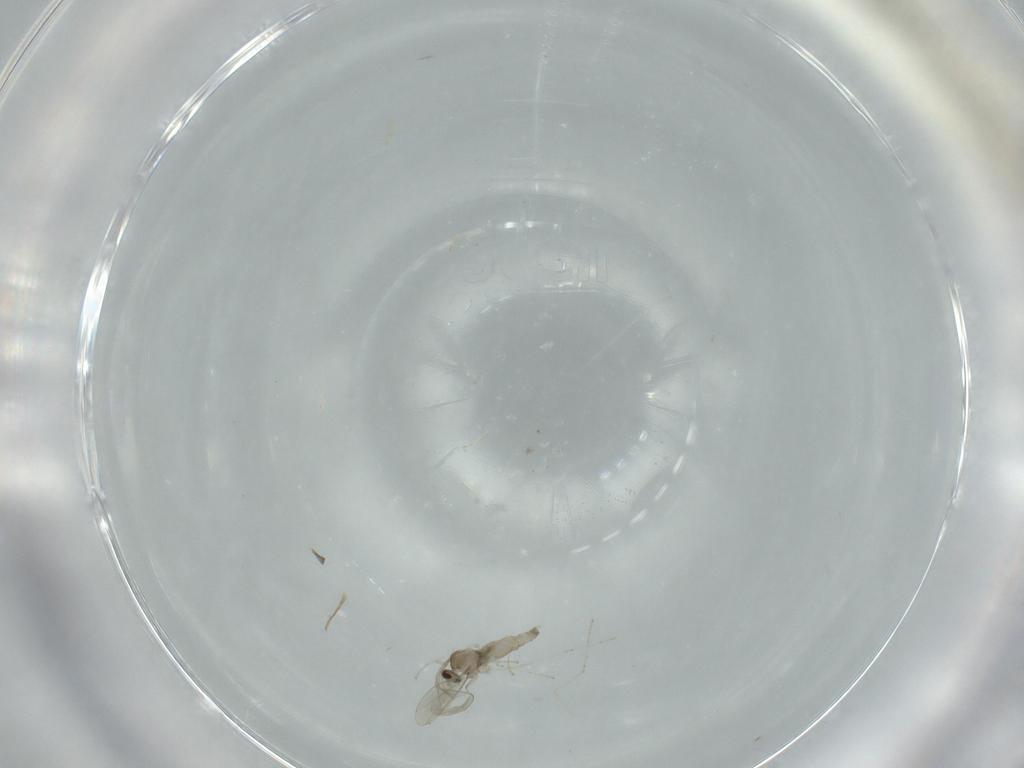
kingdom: Animalia
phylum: Arthropoda
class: Insecta
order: Diptera
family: Cecidomyiidae
